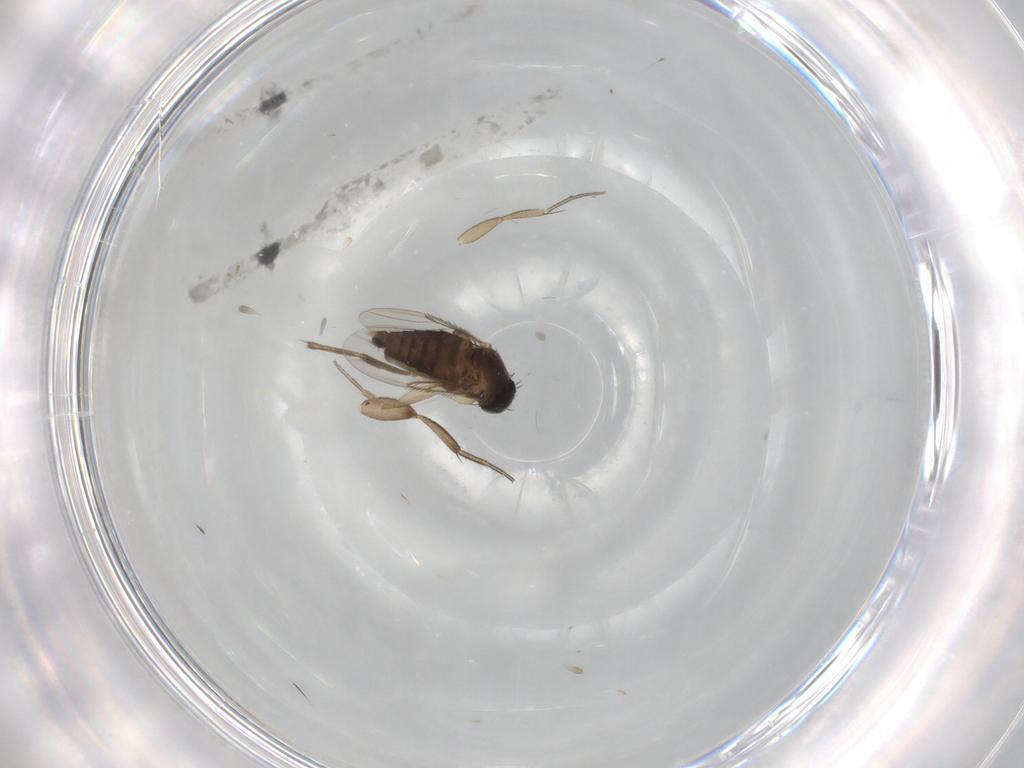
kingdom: Animalia
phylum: Arthropoda
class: Insecta
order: Diptera
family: Phoridae
